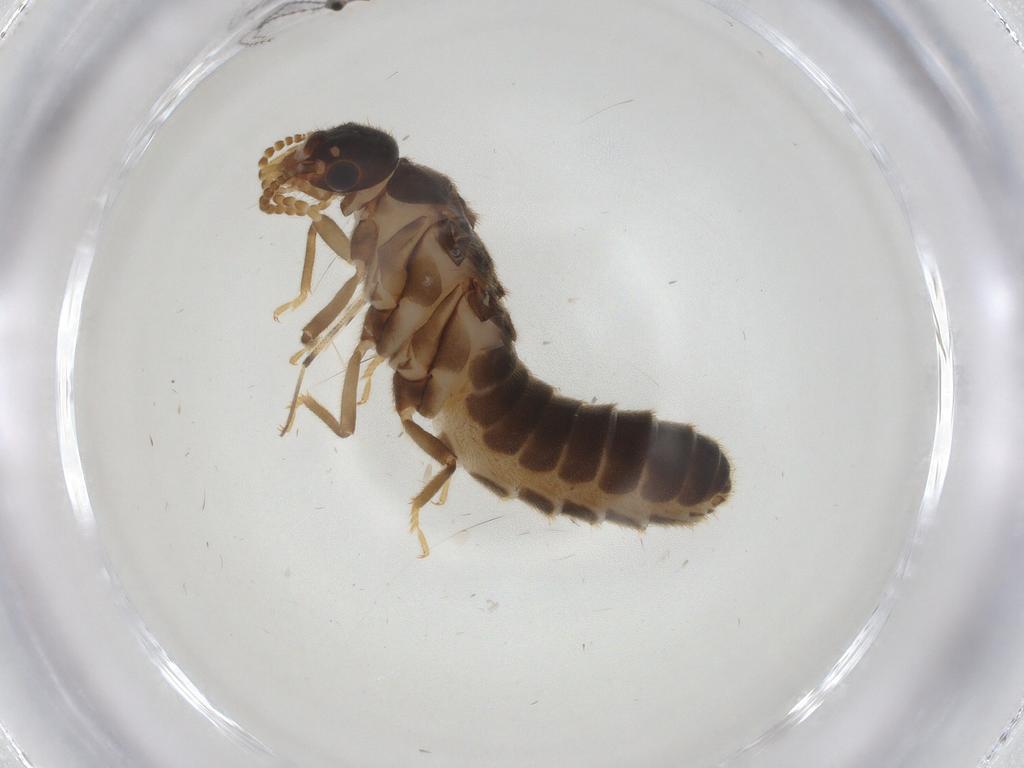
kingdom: Animalia
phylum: Arthropoda
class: Insecta
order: Blattodea
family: Termitidae
